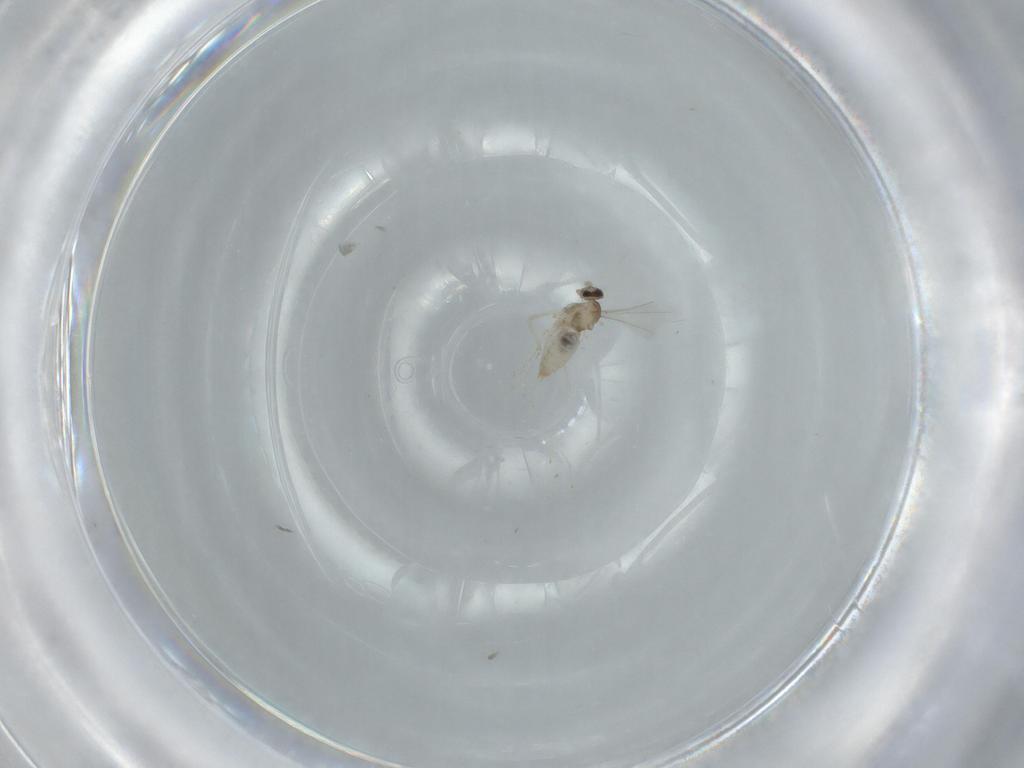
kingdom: Animalia
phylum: Arthropoda
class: Insecta
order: Diptera
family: Cecidomyiidae
